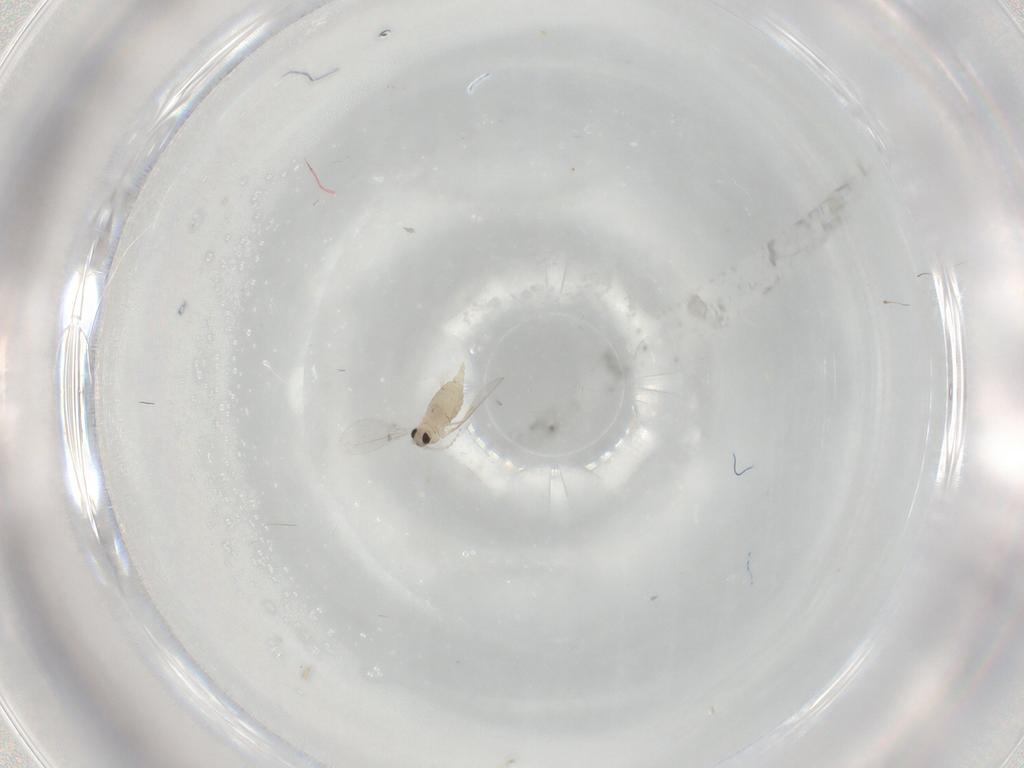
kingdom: Animalia
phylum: Arthropoda
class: Insecta
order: Diptera
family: Cecidomyiidae
